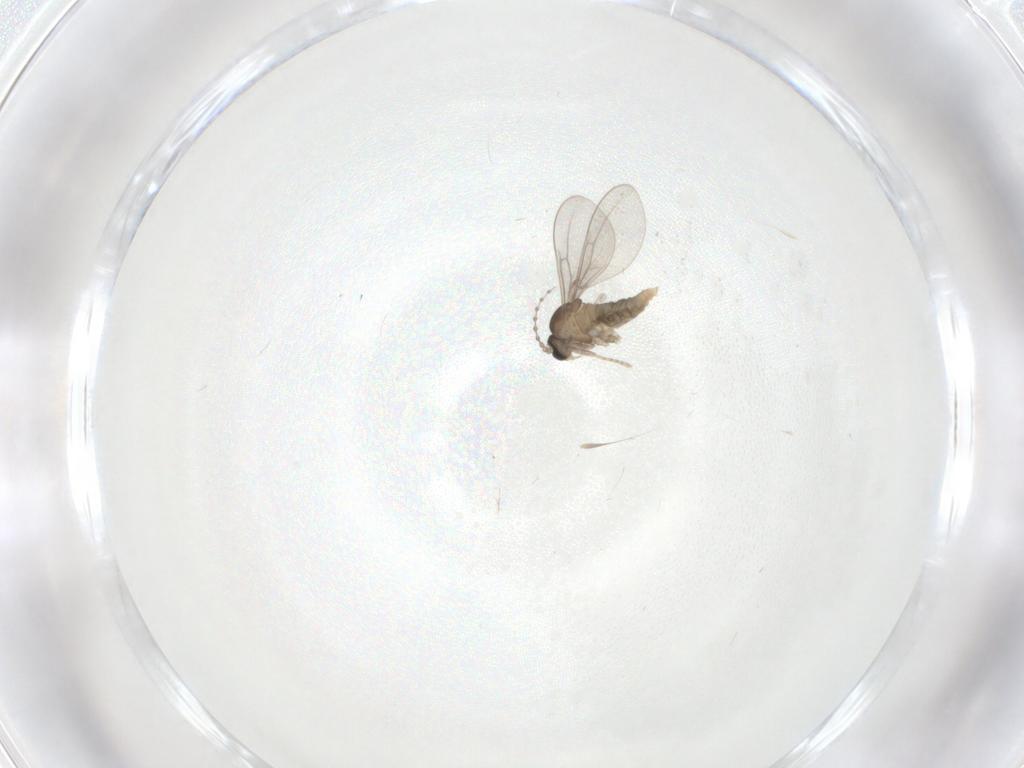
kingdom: Animalia
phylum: Arthropoda
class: Insecta
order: Diptera
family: Cecidomyiidae
